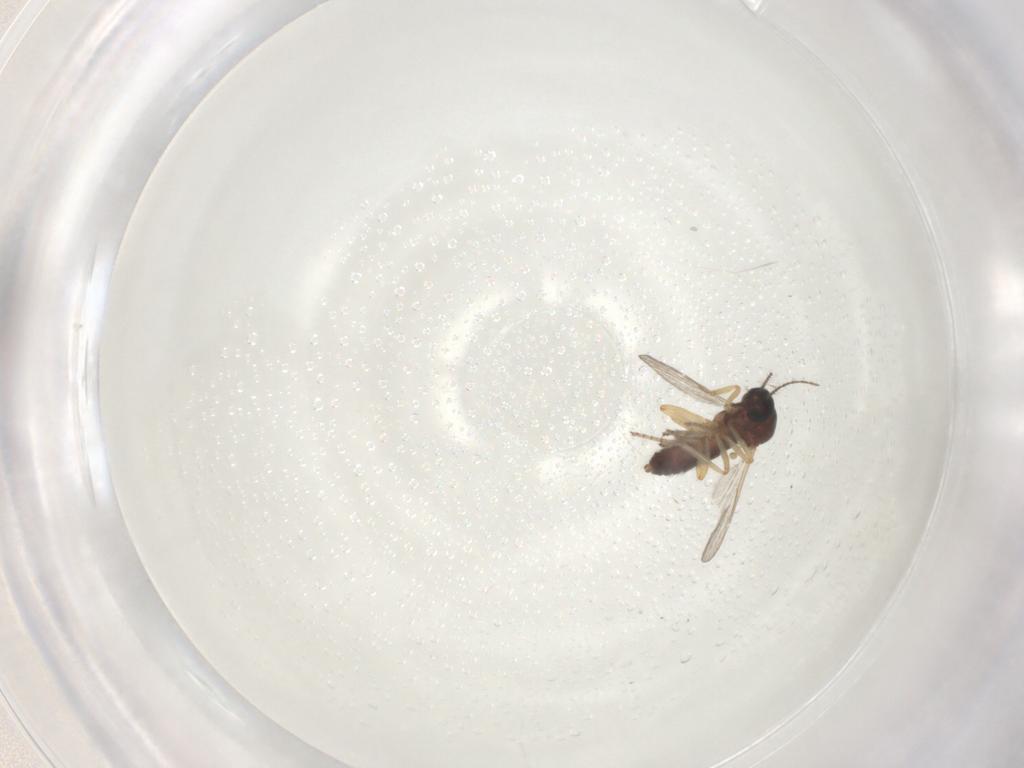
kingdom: Animalia
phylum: Arthropoda
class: Insecta
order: Diptera
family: Ceratopogonidae
